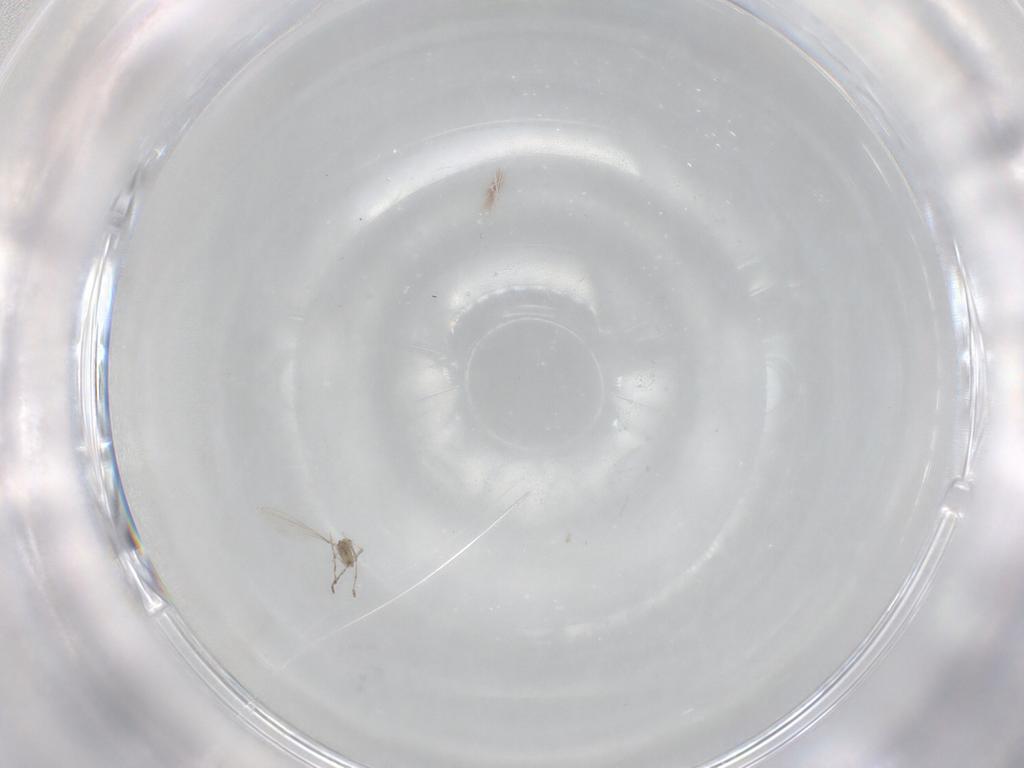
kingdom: Animalia
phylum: Arthropoda
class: Insecta
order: Diptera
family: Cecidomyiidae
